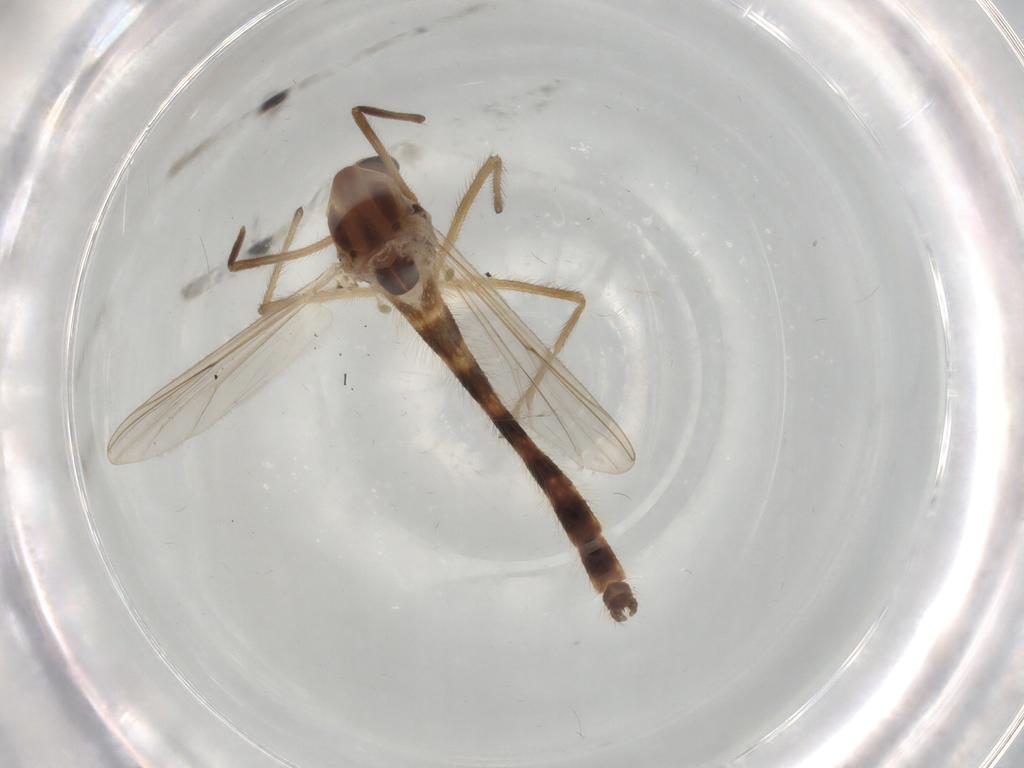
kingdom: Animalia
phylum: Arthropoda
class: Insecta
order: Diptera
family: Chironomidae
